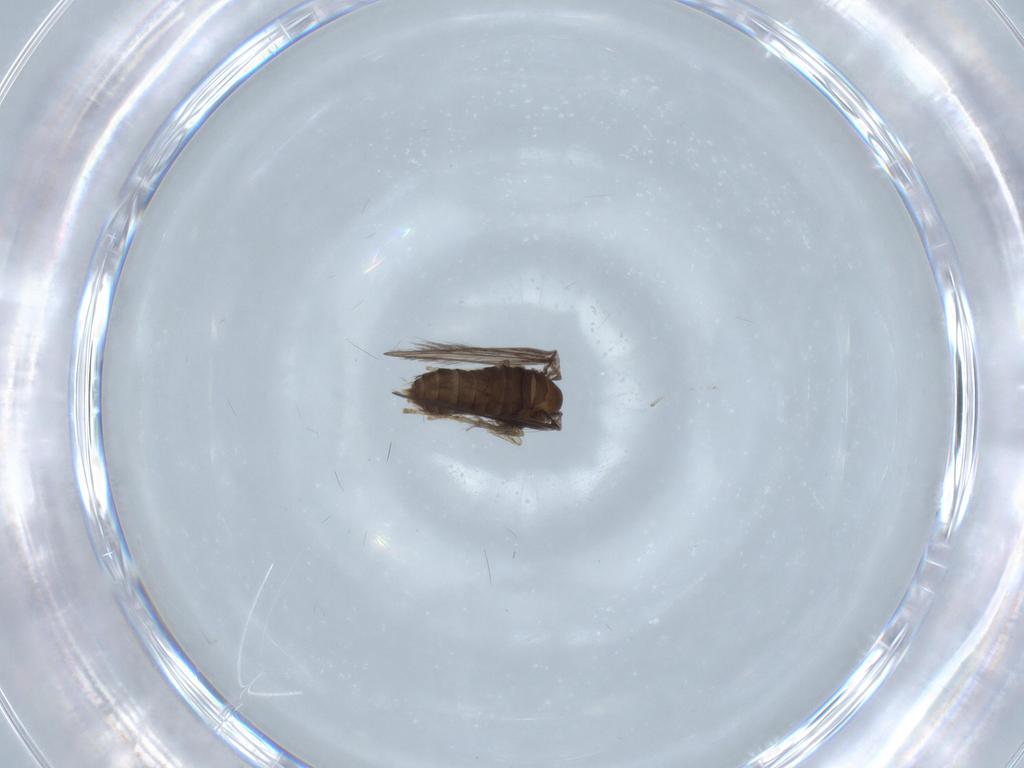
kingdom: Animalia
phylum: Arthropoda
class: Insecta
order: Diptera
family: Psychodidae
